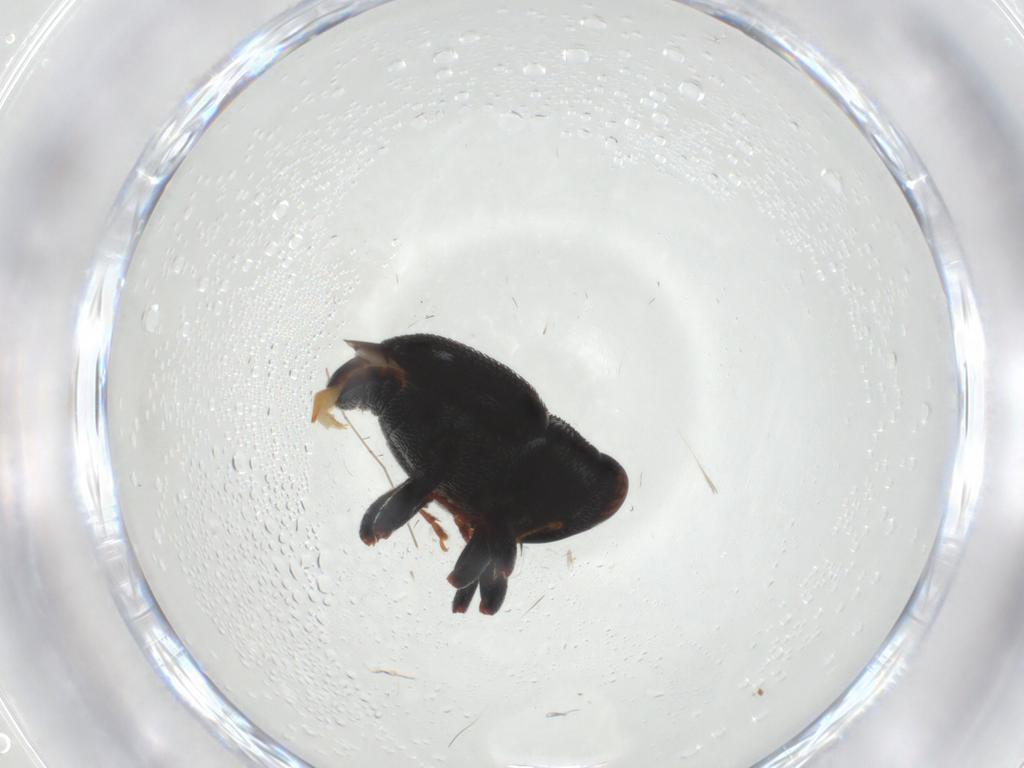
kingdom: Animalia
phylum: Arthropoda
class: Insecta
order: Coleoptera
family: Curculionidae
